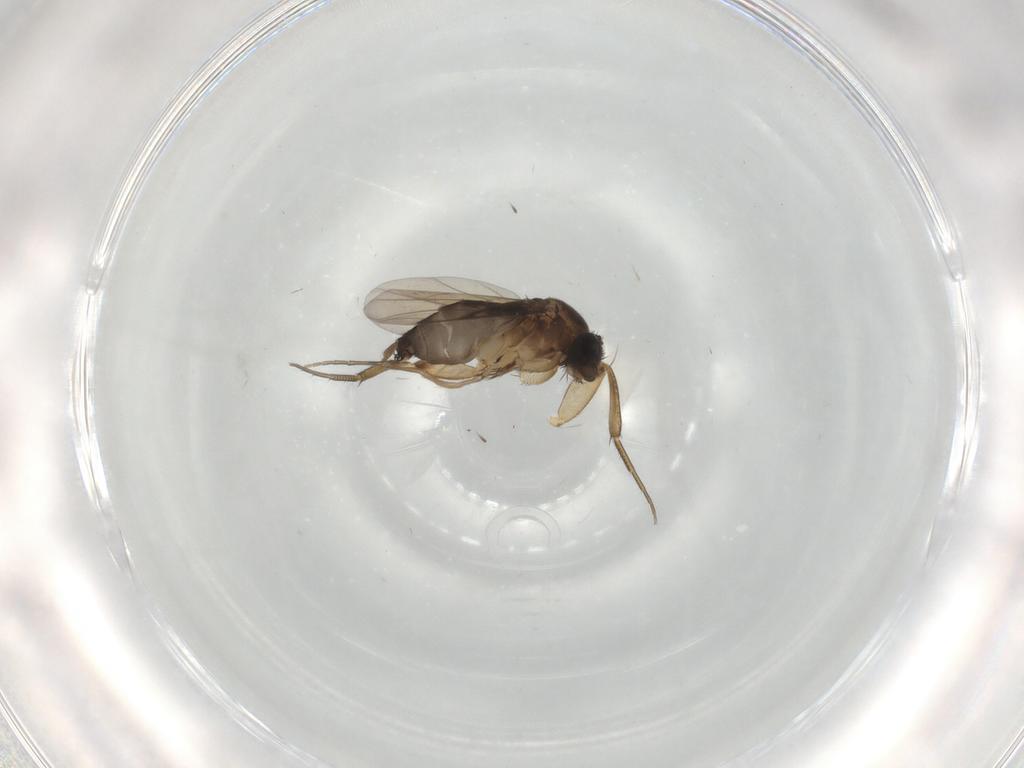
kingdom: Animalia
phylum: Arthropoda
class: Insecta
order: Diptera
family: Phoridae
